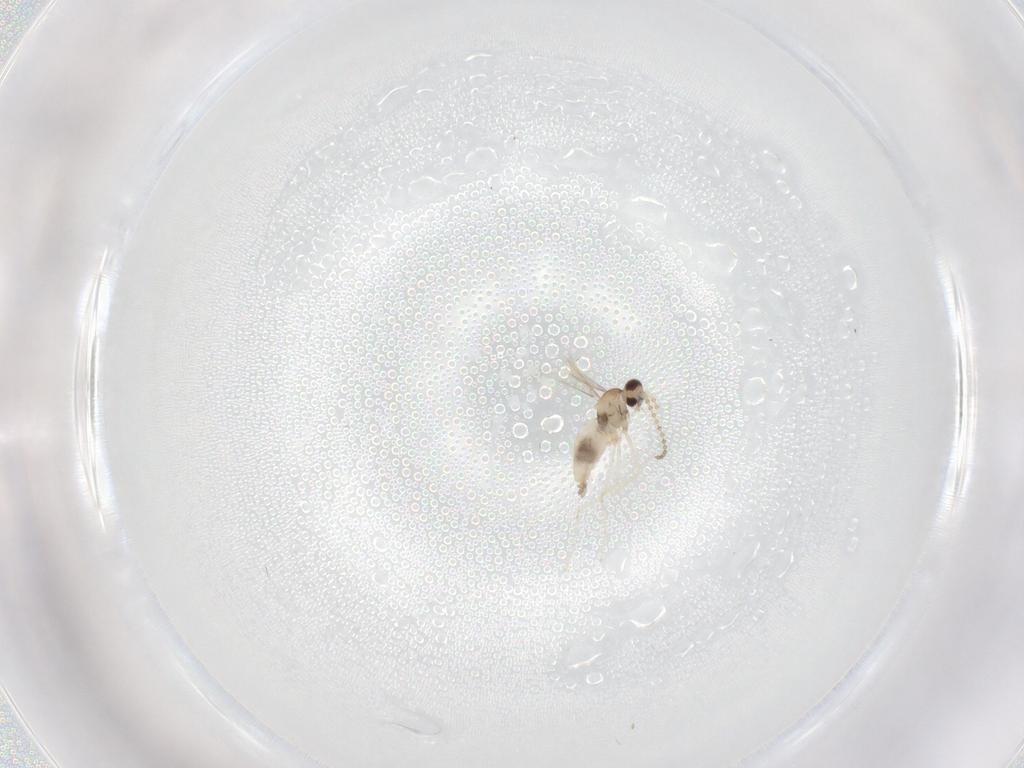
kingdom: Animalia
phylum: Arthropoda
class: Insecta
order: Diptera
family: Cecidomyiidae
